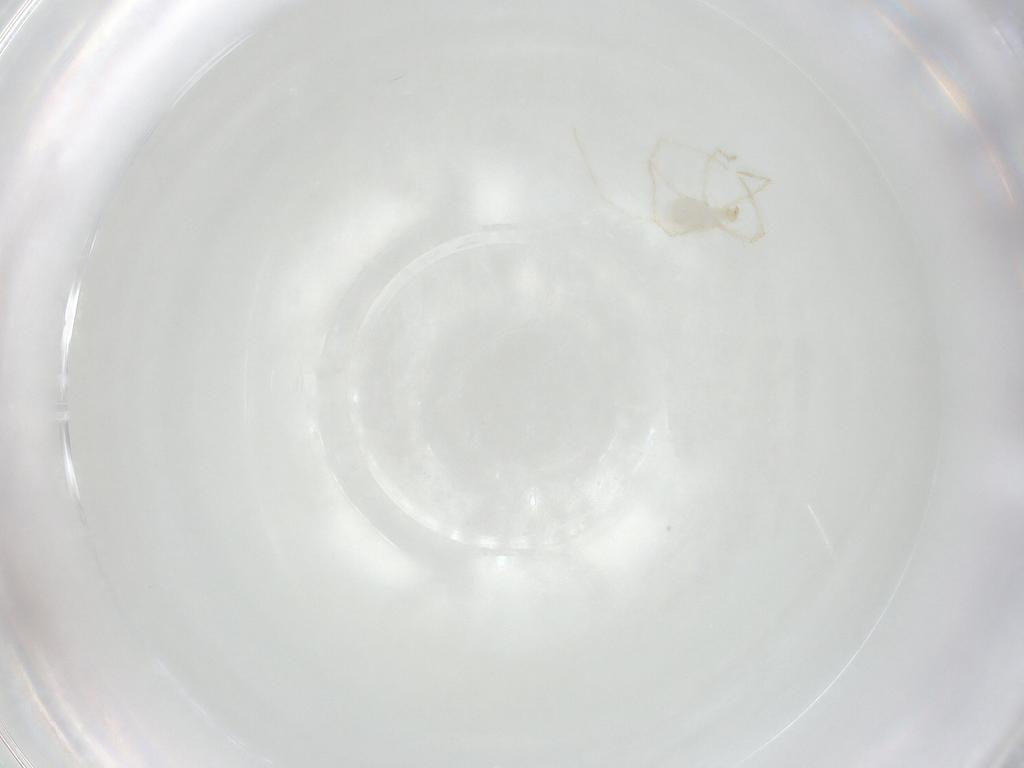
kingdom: Animalia
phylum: Arthropoda
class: Arachnida
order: Trombidiformes
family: Erythraeidae
